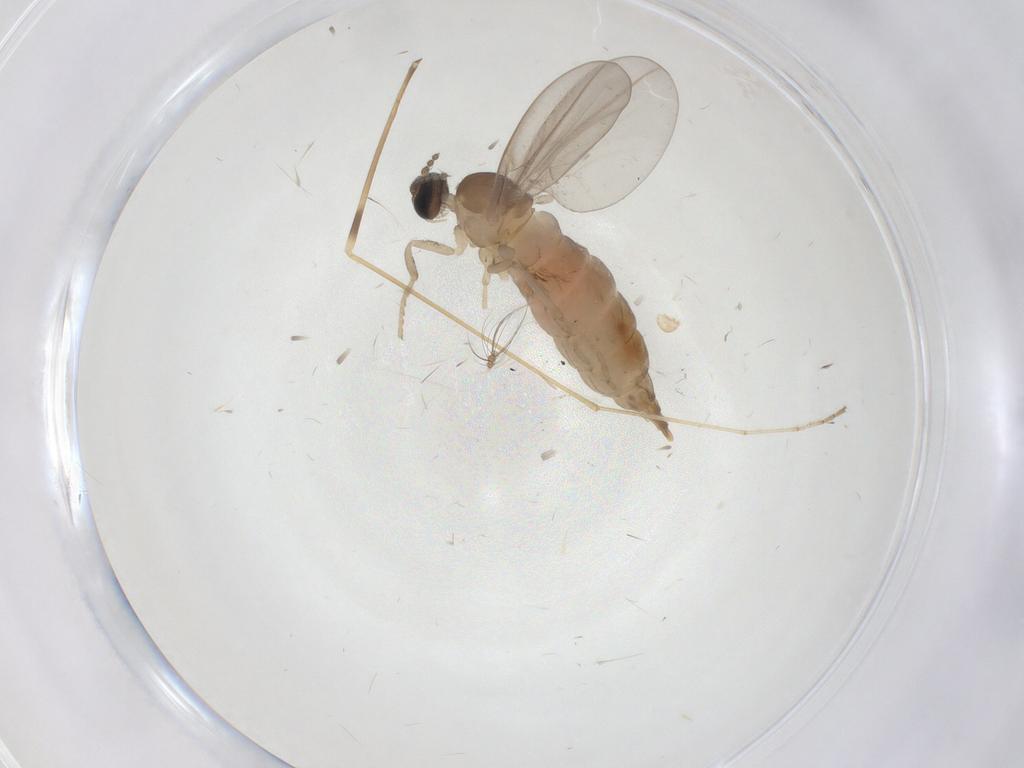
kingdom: Animalia
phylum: Arthropoda
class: Insecta
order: Diptera
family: Cecidomyiidae
